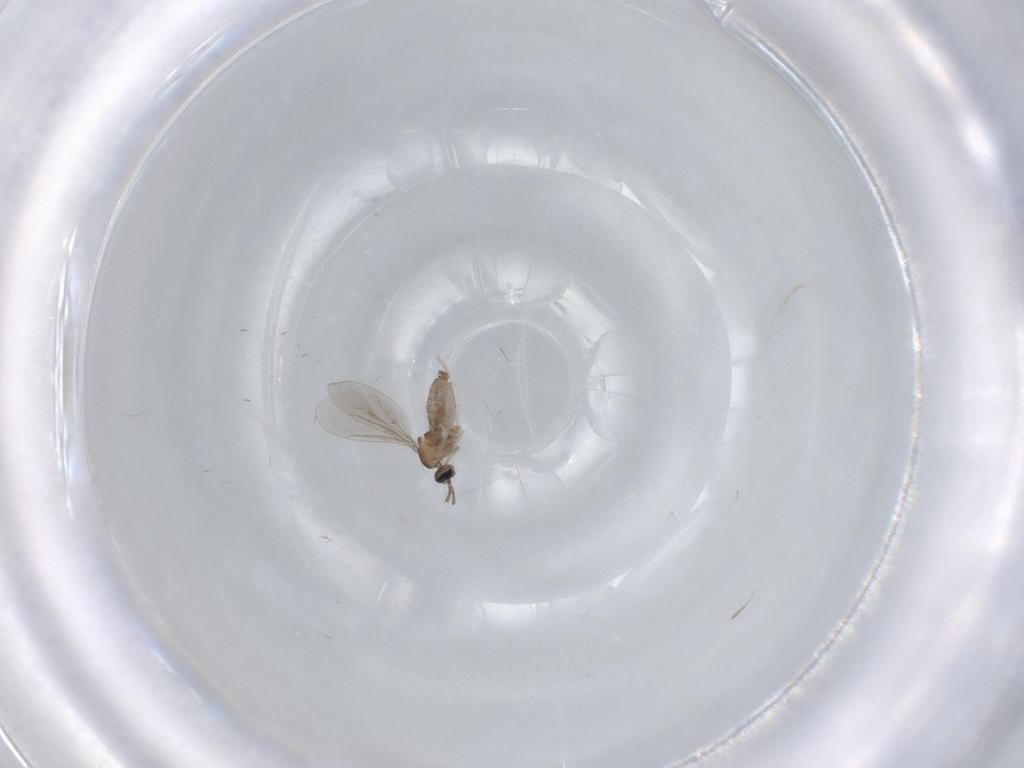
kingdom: Animalia
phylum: Arthropoda
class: Insecta
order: Diptera
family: Cecidomyiidae
